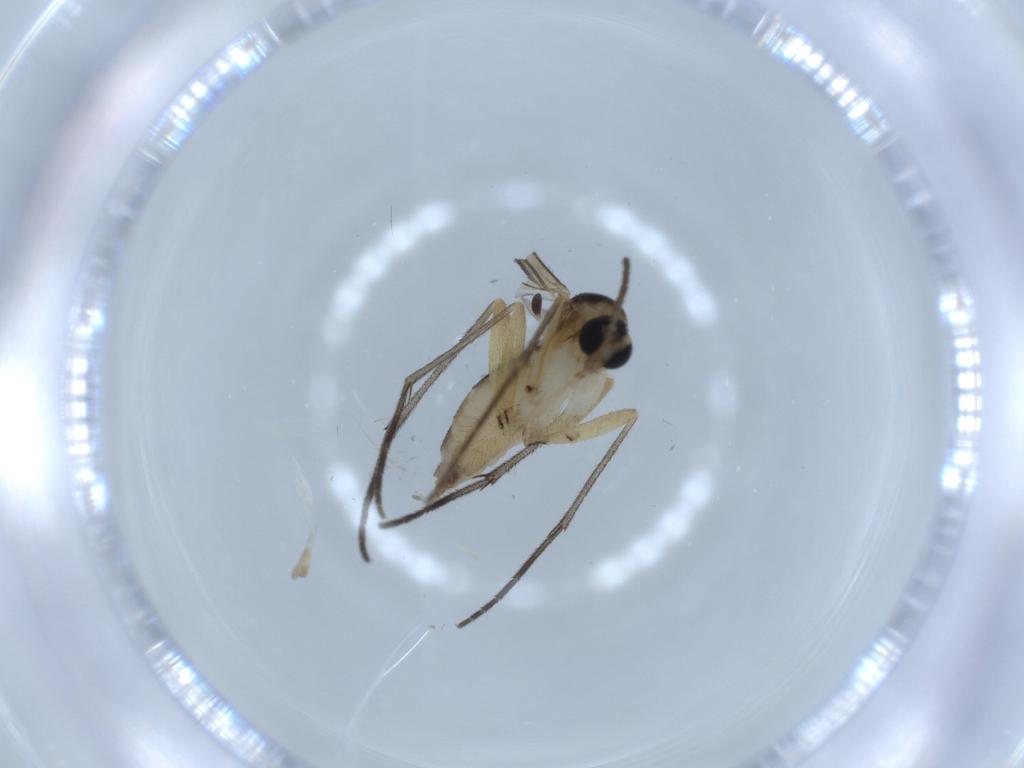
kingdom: Animalia
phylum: Arthropoda
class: Insecta
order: Diptera
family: Sciaridae
